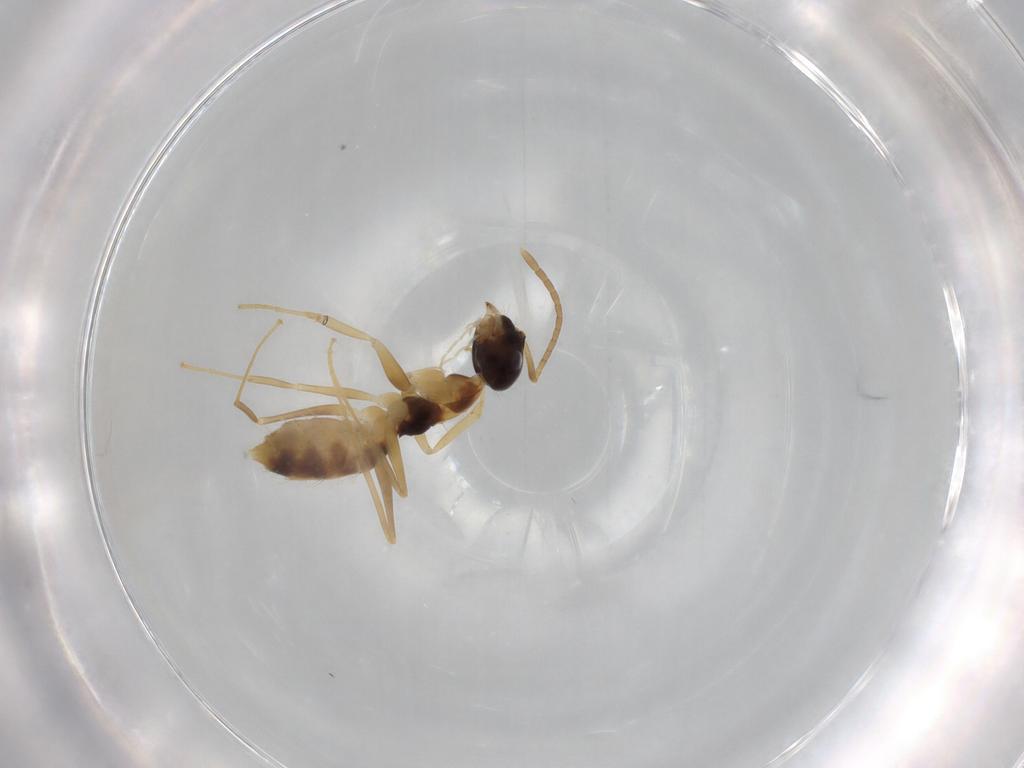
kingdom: Animalia
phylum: Arthropoda
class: Insecta
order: Hymenoptera
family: Formicidae
